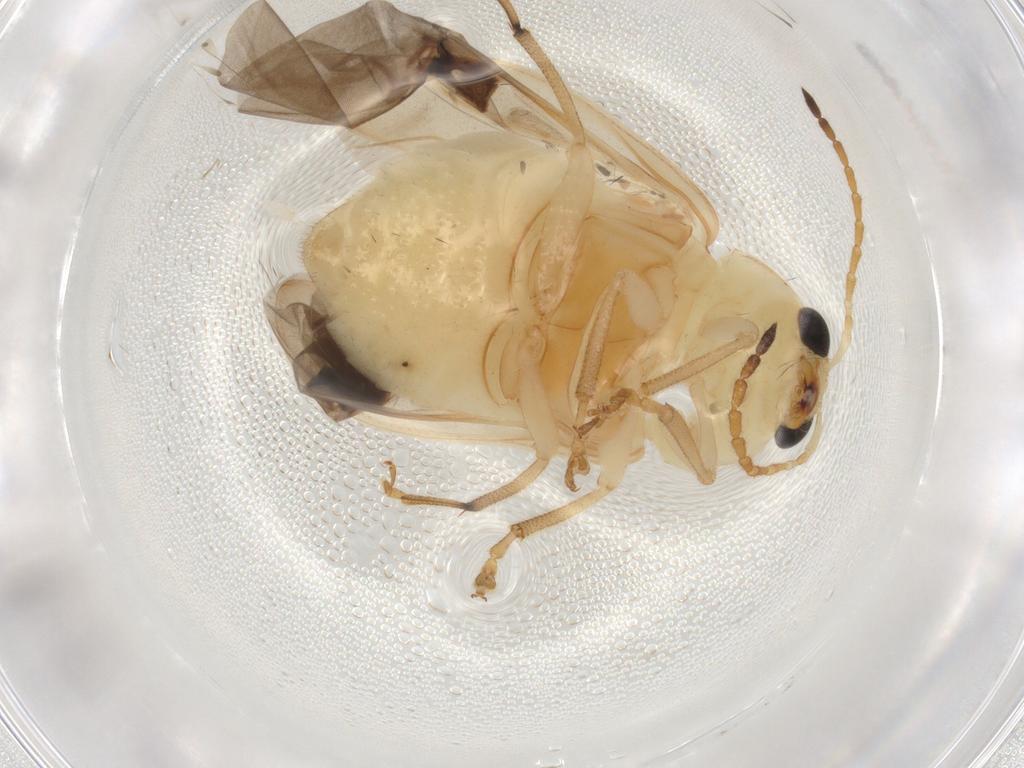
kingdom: Animalia
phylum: Arthropoda
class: Insecta
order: Coleoptera
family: Chrysomelidae
